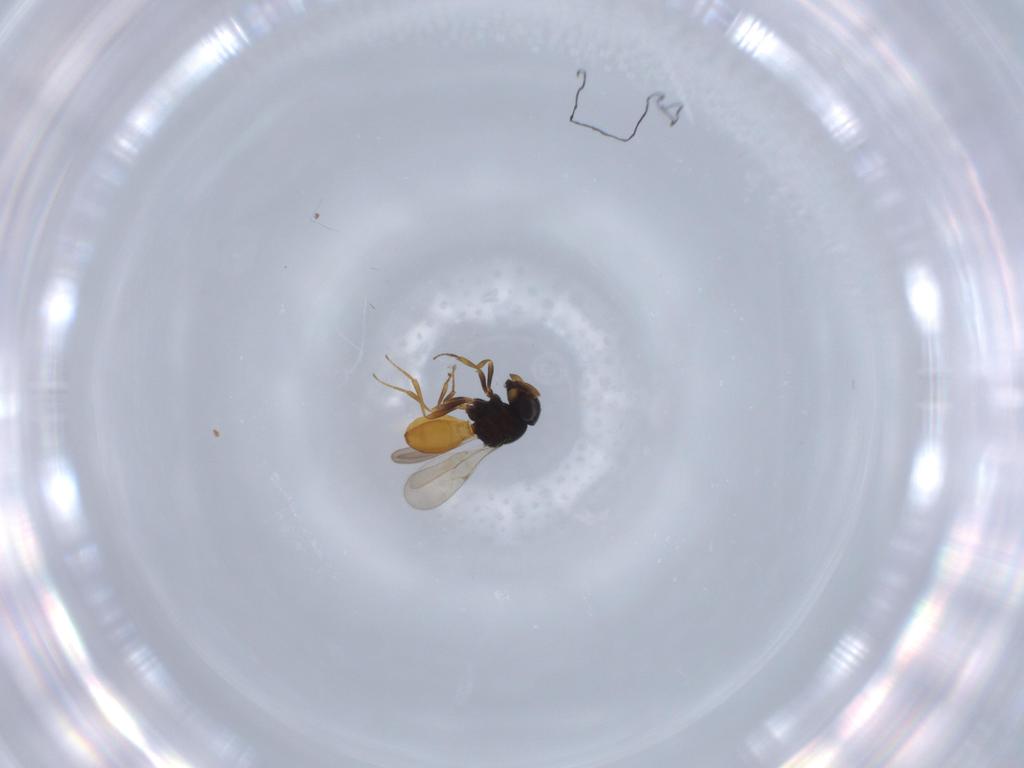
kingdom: Animalia
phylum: Arthropoda
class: Insecta
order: Hymenoptera
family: Scelionidae
